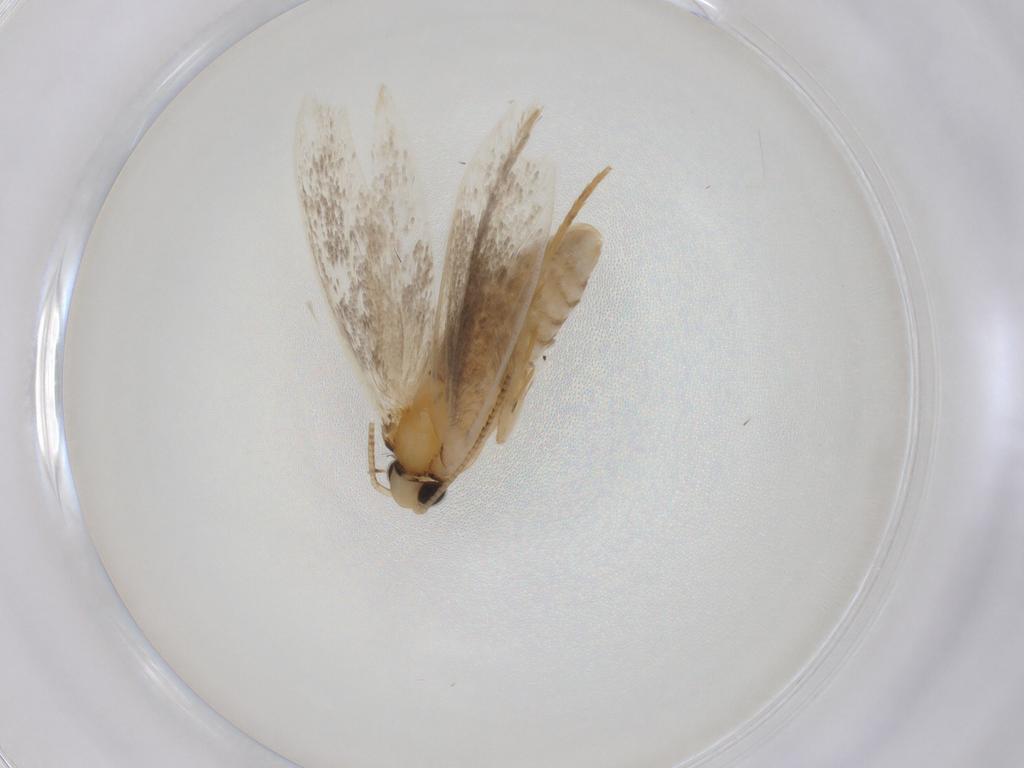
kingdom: Animalia
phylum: Arthropoda
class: Insecta
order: Lepidoptera
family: Tineidae
